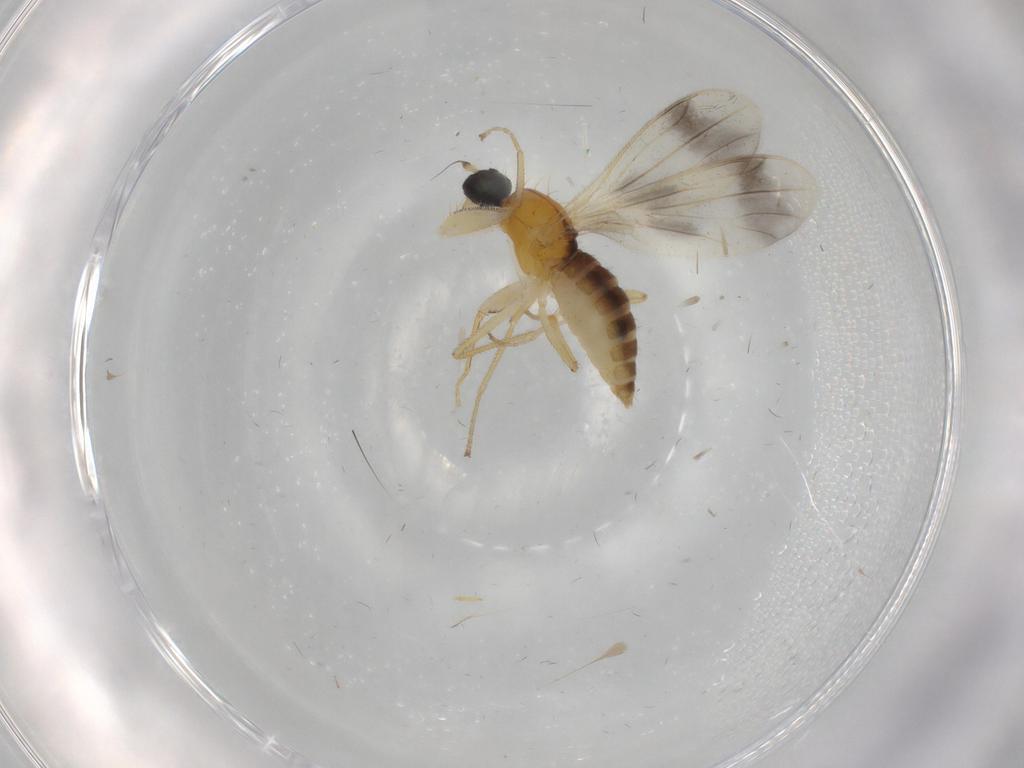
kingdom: Animalia
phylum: Arthropoda
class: Insecta
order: Diptera
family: Empididae
